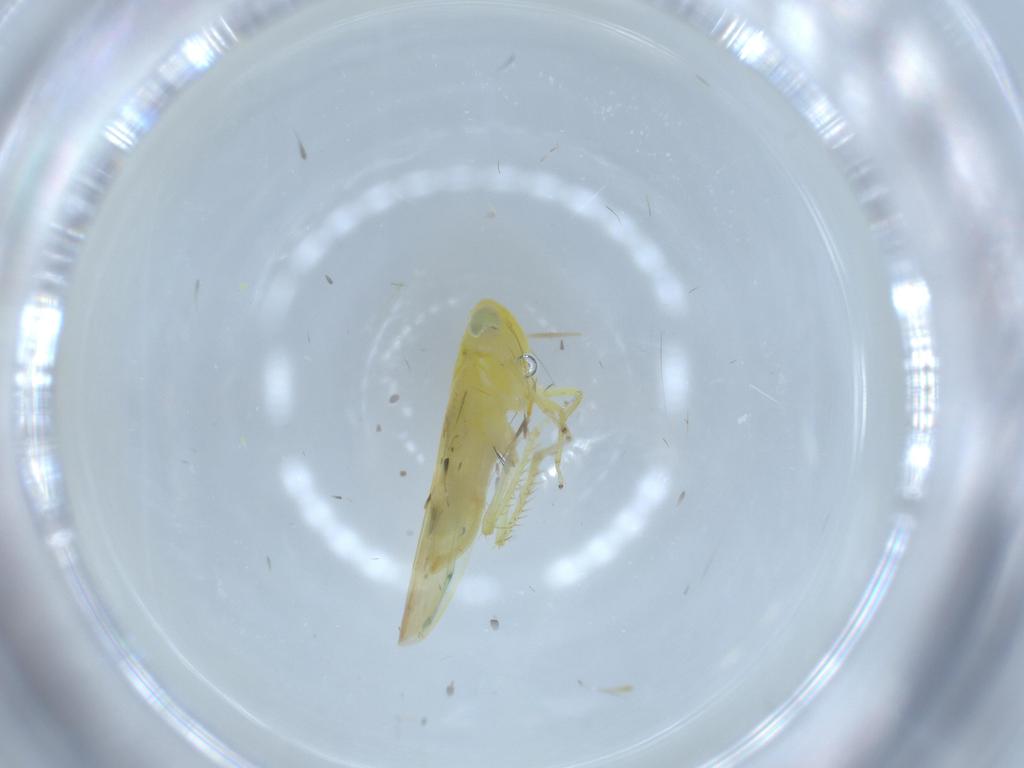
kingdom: Animalia
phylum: Arthropoda
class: Insecta
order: Hemiptera
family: Cicadellidae
